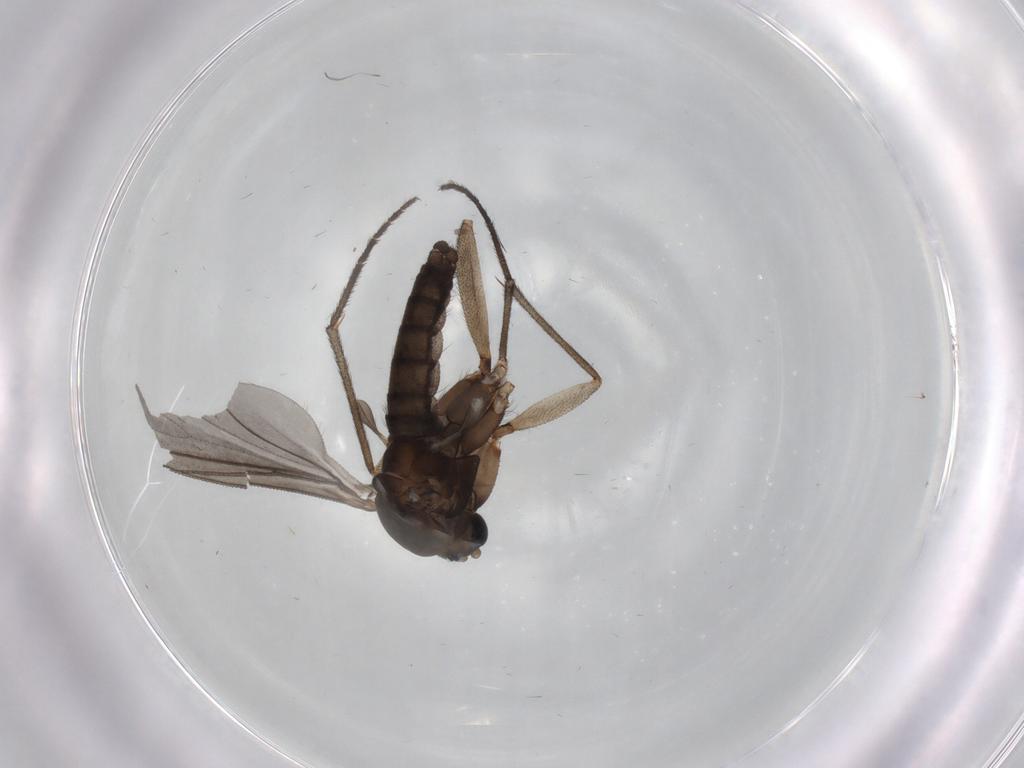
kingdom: Animalia
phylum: Arthropoda
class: Insecta
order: Diptera
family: Sciaridae
